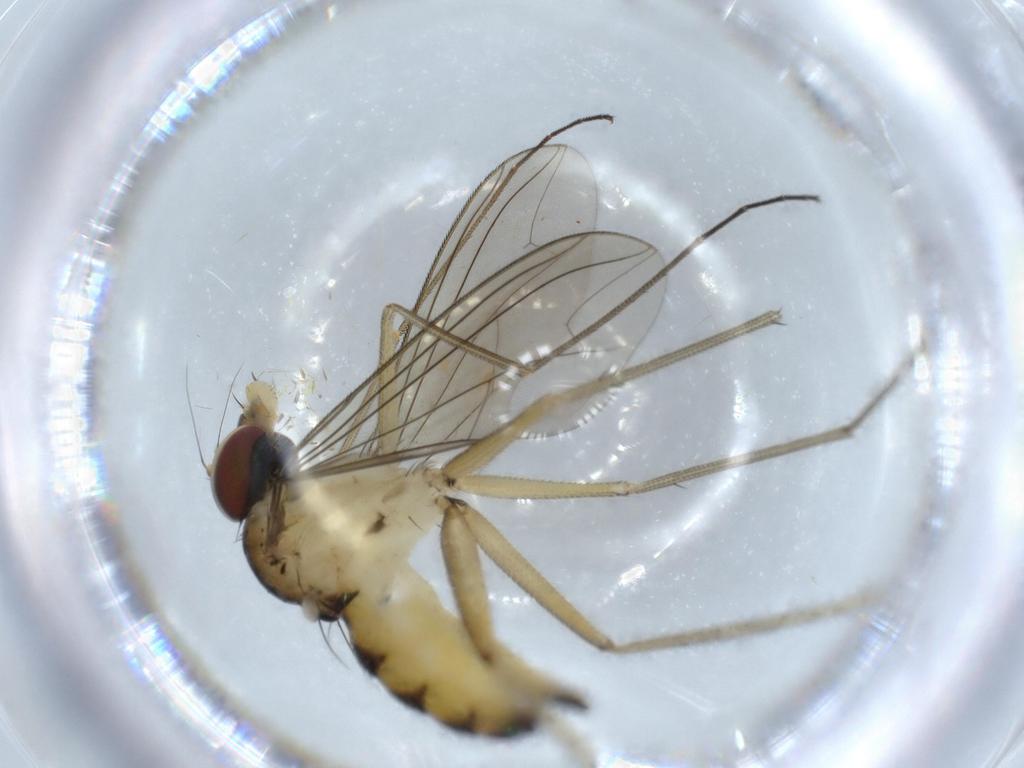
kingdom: Animalia
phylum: Arthropoda
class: Insecta
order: Diptera
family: Dolichopodidae
